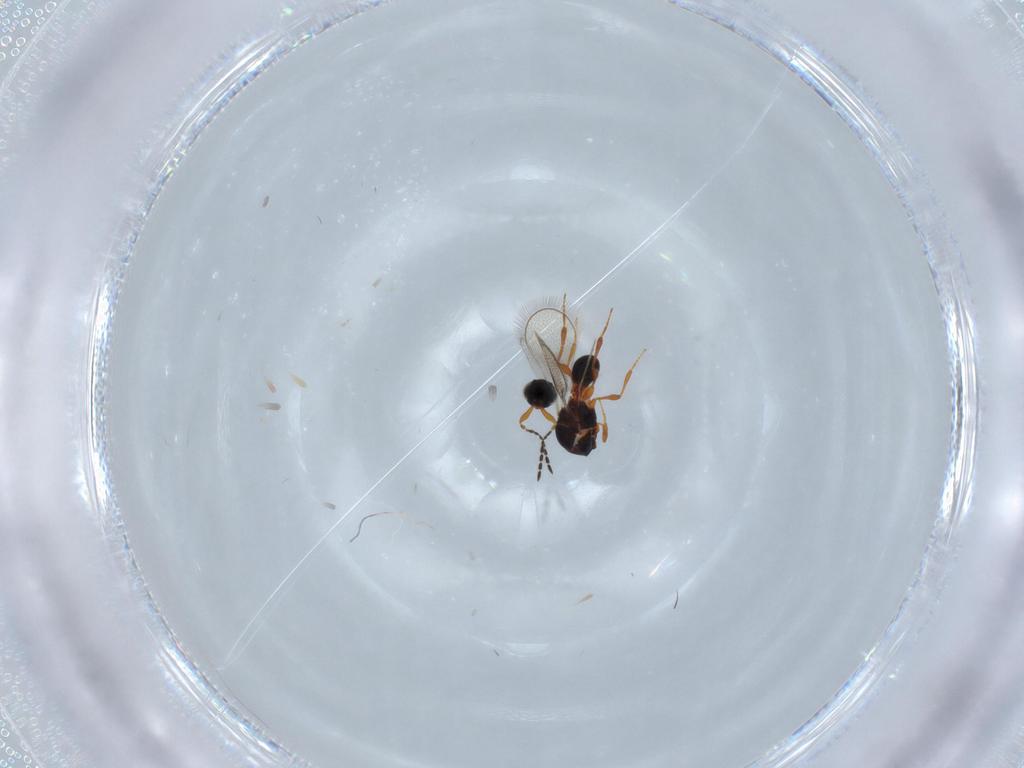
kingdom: Animalia
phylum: Arthropoda
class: Insecta
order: Hymenoptera
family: Platygastridae
